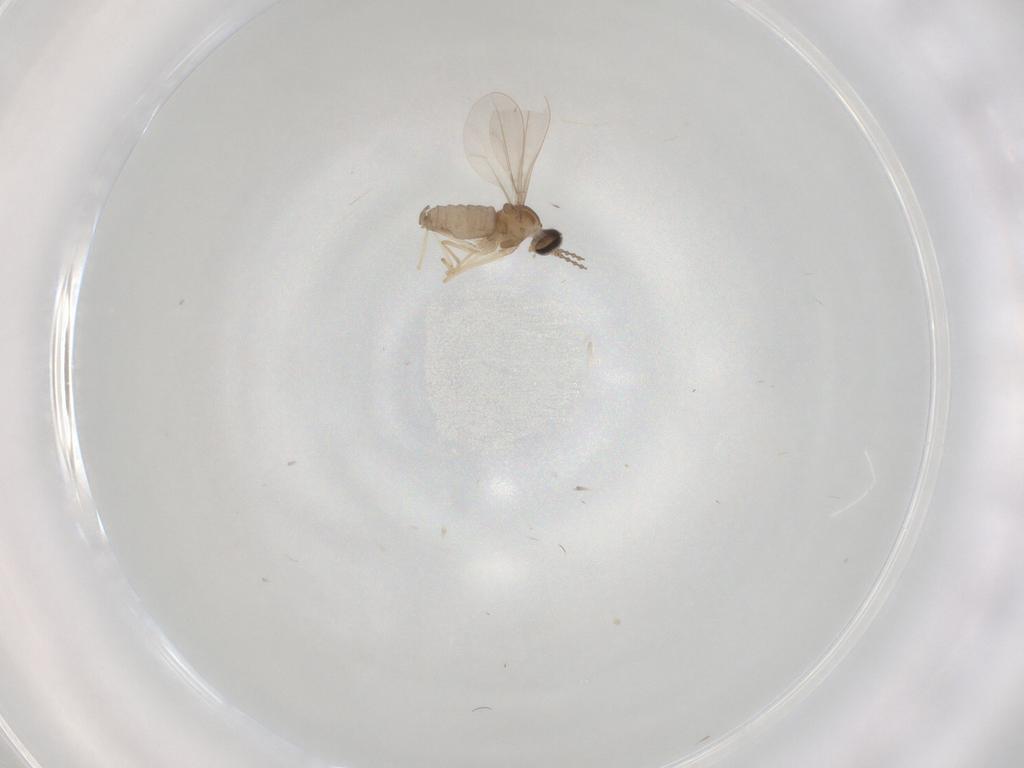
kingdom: Animalia
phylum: Arthropoda
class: Insecta
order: Diptera
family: Cecidomyiidae
